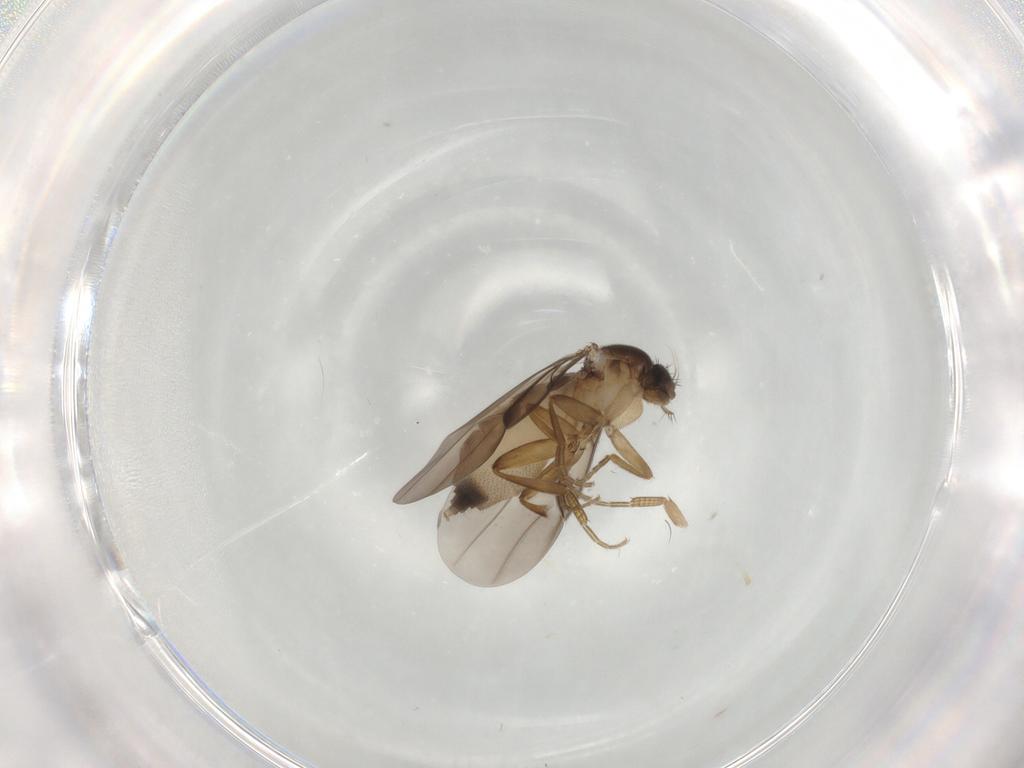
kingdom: Animalia
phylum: Arthropoda
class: Insecta
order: Diptera
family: Phoridae
